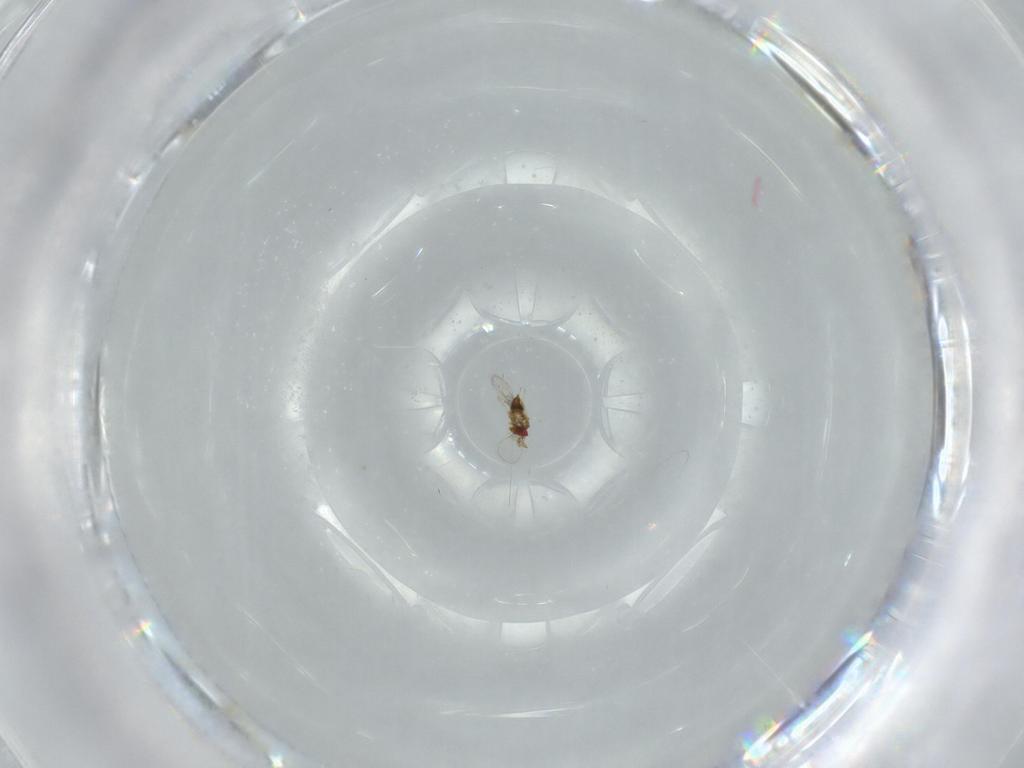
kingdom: Animalia
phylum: Arthropoda
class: Insecta
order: Hymenoptera
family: Trichogrammatidae
